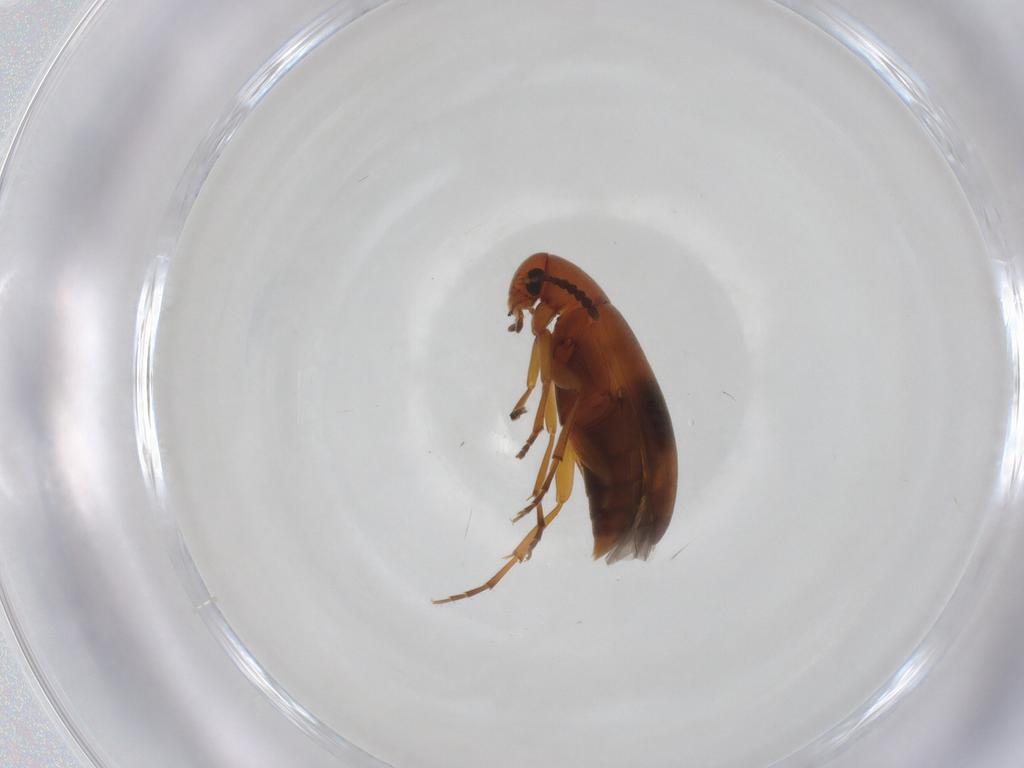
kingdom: Animalia
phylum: Arthropoda
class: Insecta
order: Coleoptera
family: Scraptiidae
